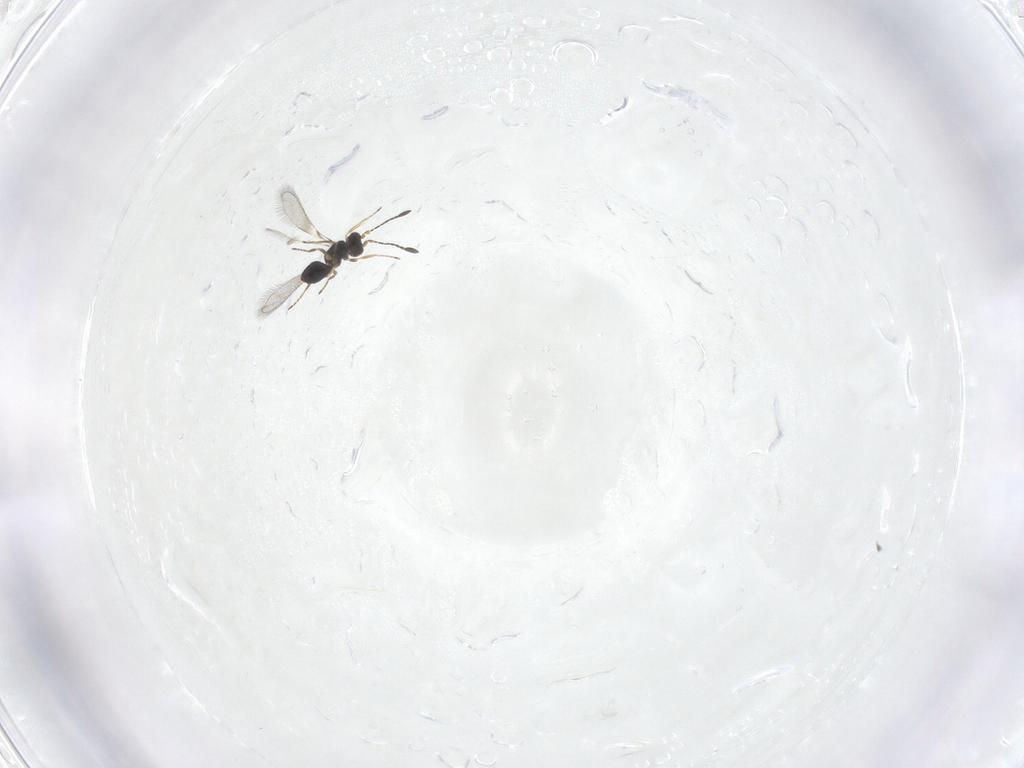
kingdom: Animalia
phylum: Arthropoda
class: Insecta
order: Hymenoptera
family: Mymaridae
